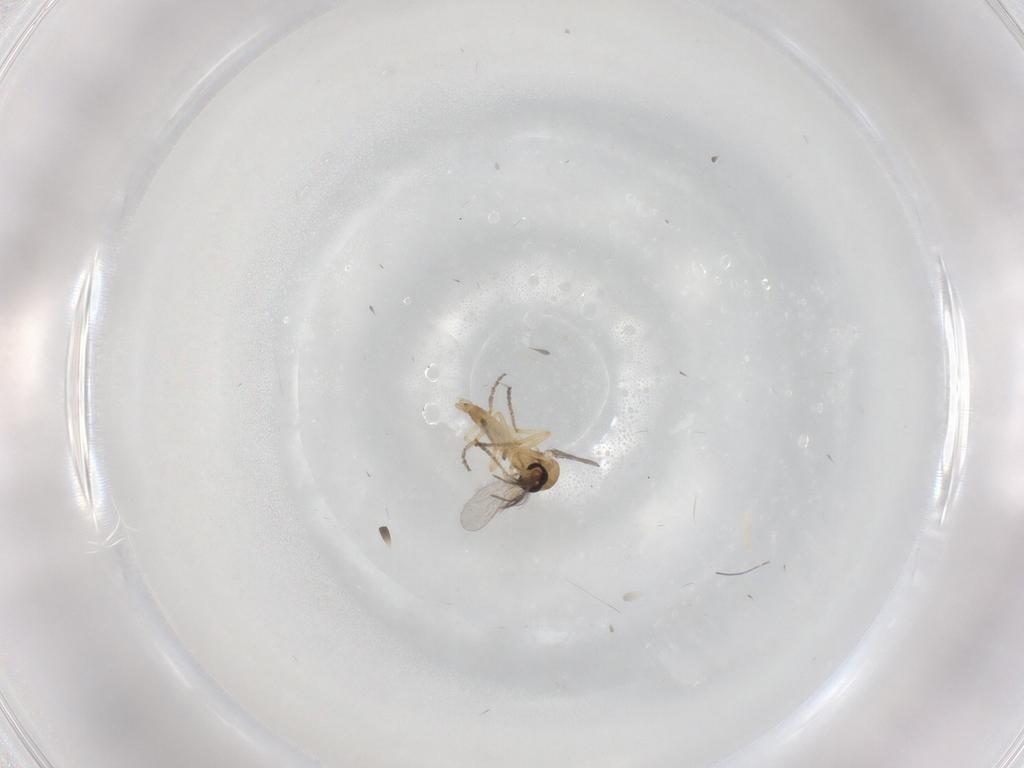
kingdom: Animalia
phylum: Arthropoda
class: Insecta
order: Diptera
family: Ceratopogonidae
